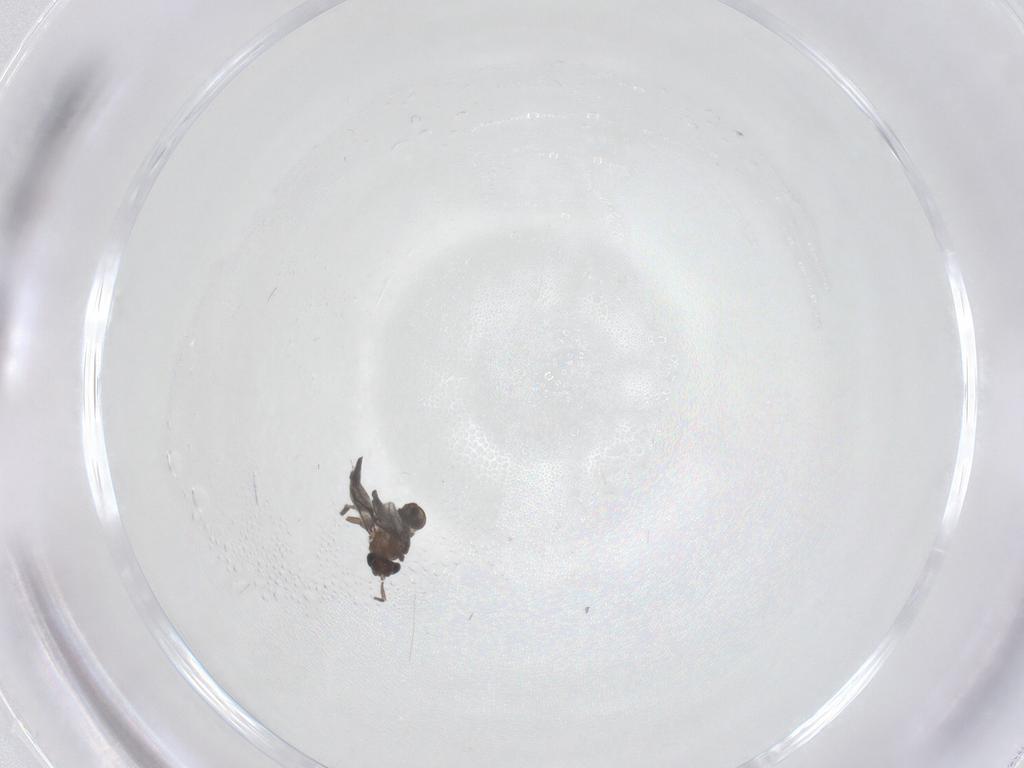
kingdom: Animalia
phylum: Arthropoda
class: Insecta
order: Diptera
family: Cecidomyiidae
